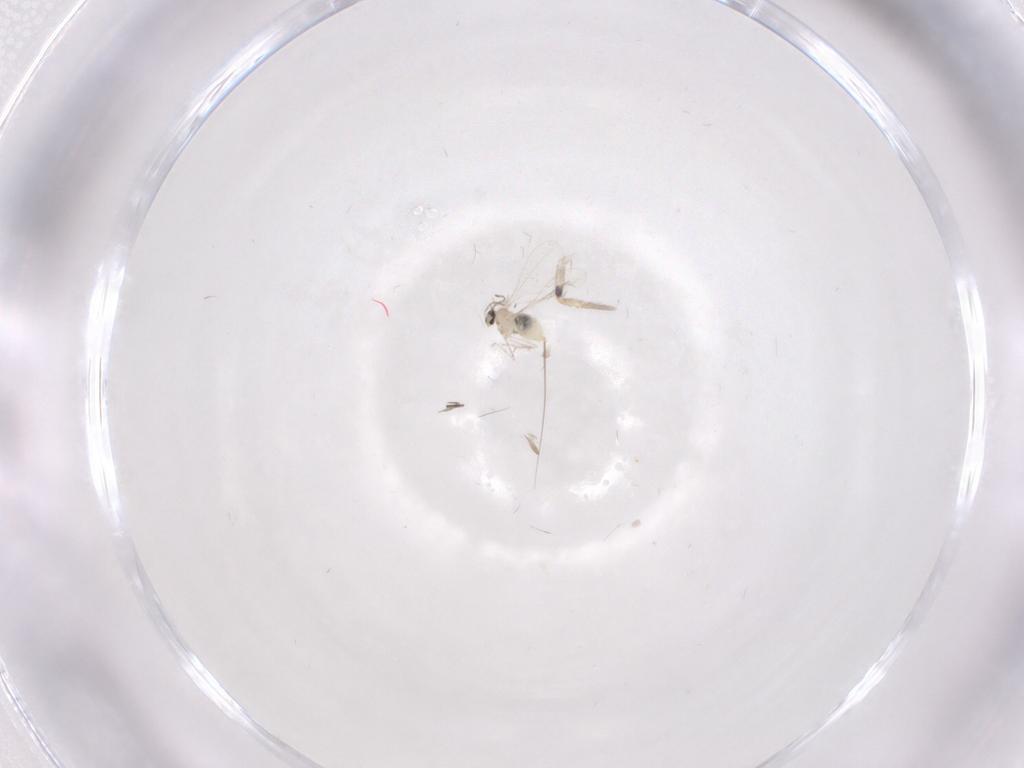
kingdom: Animalia
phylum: Arthropoda
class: Insecta
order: Diptera
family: Cecidomyiidae
